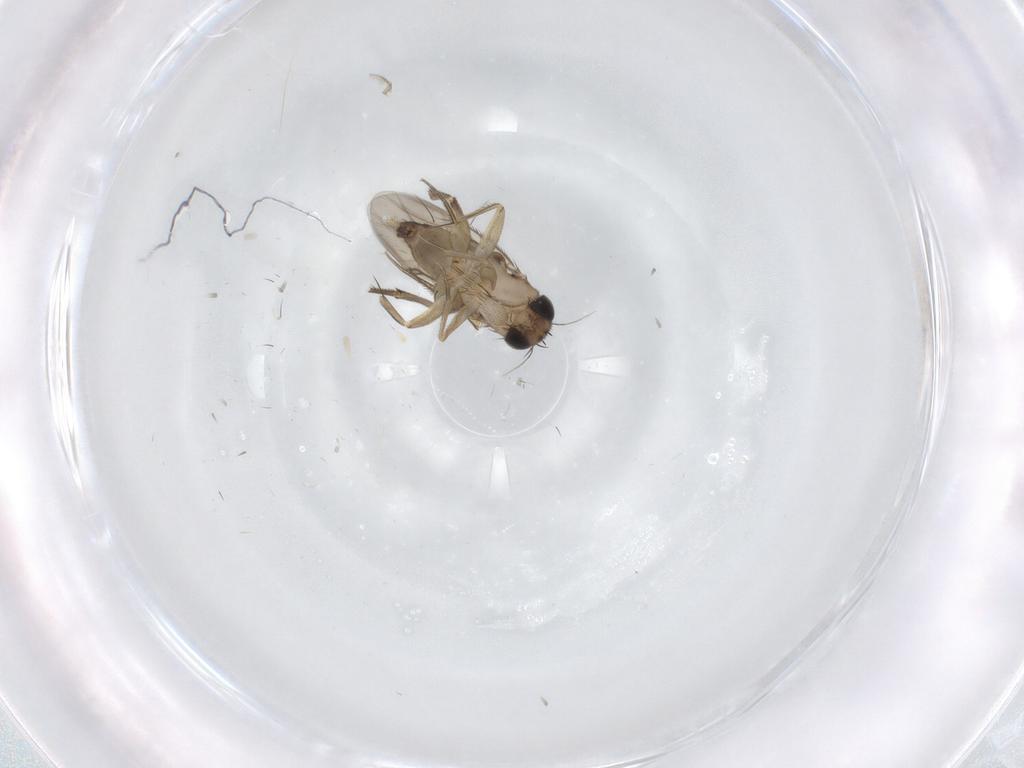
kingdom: Animalia
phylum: Arthropoda
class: Insecta
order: Diptera
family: Phoridae
